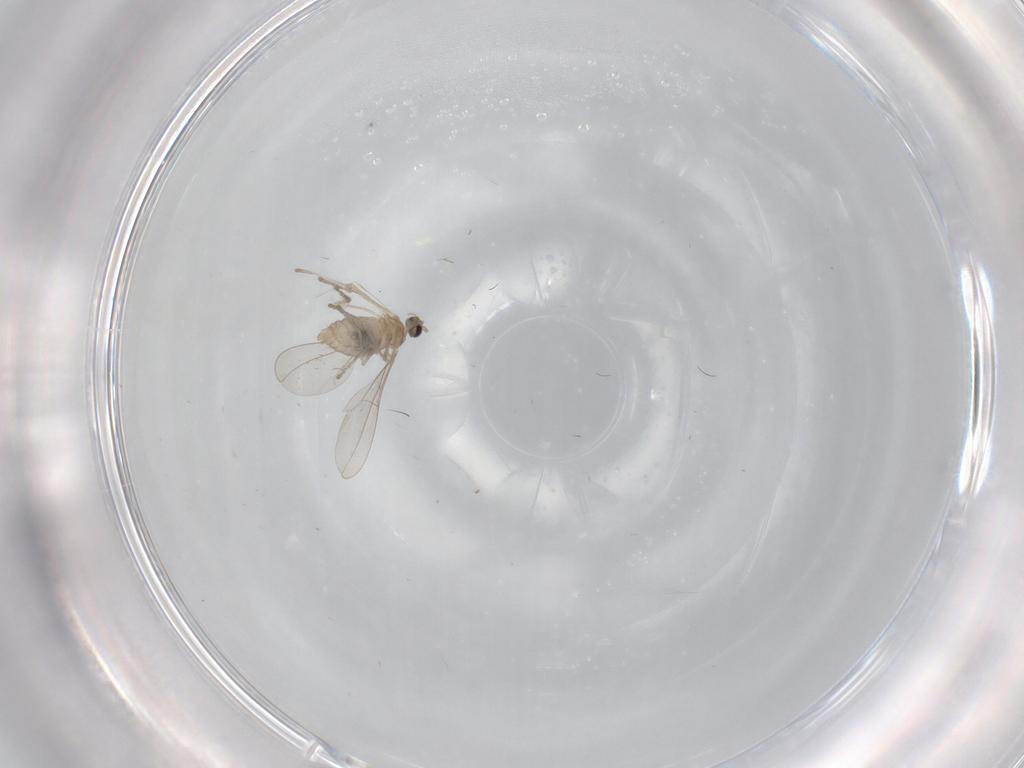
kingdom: Animalia
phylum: Arthropoda
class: Insecta
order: Diptera
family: Cecidomyiidae
